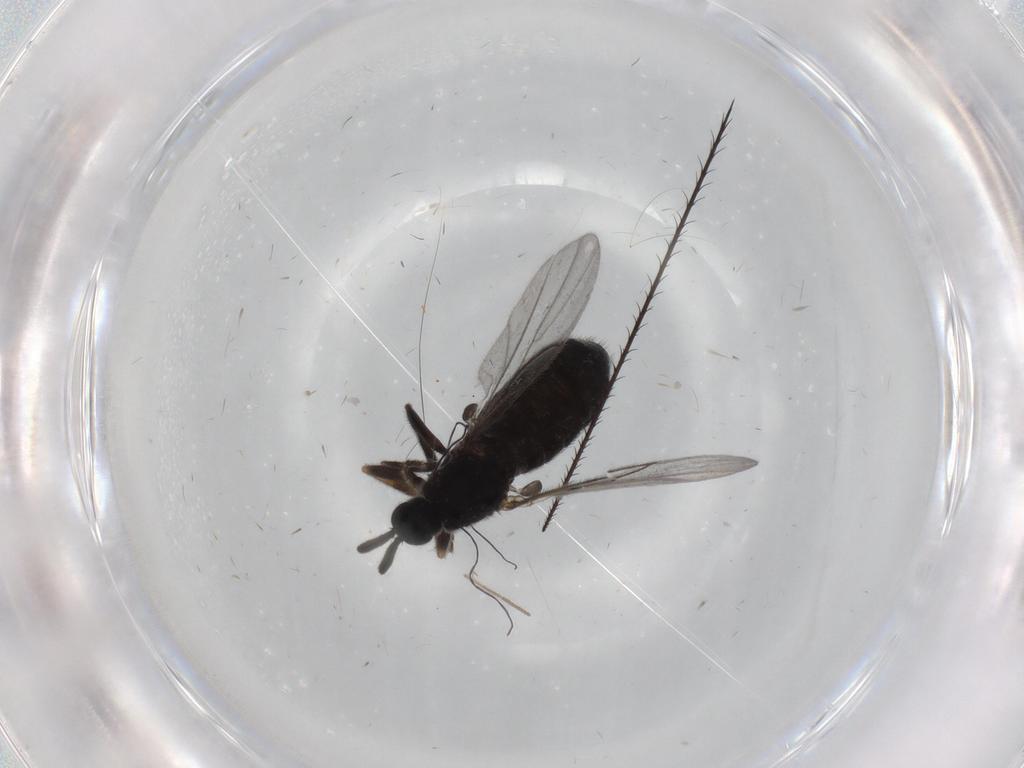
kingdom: Animalia
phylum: Arthropoda
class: Insecta
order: Diptera
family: Scatopsidae
